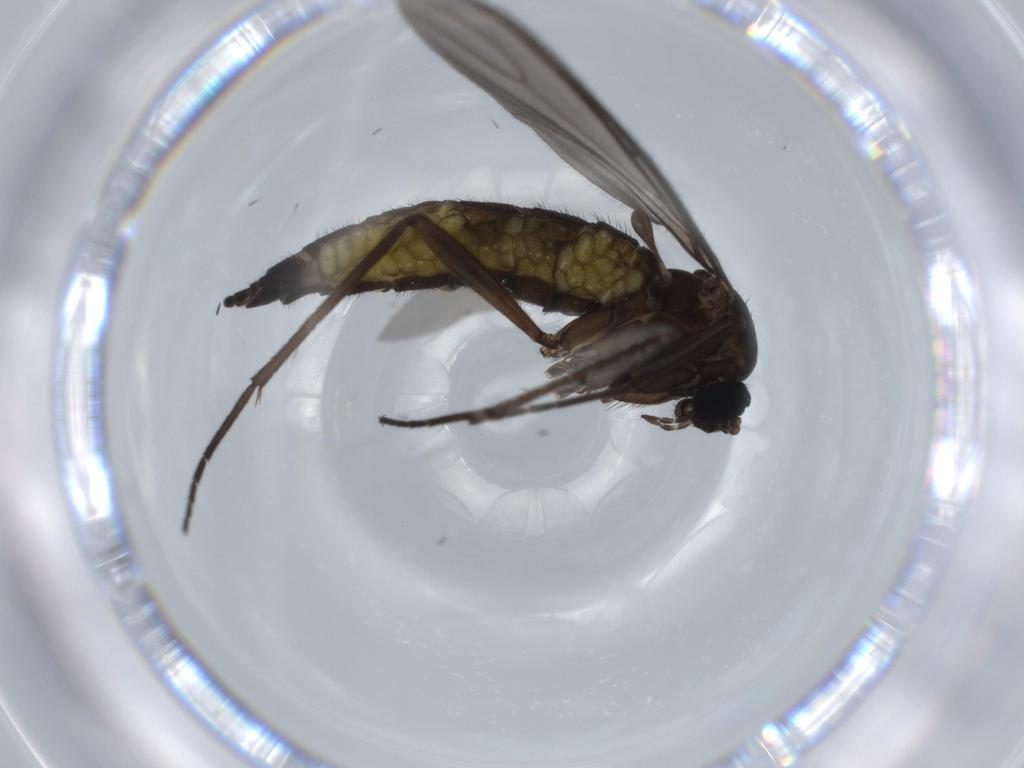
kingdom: Animalia
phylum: Arthropoda
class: Insecta
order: Diptera
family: Sciaridae
